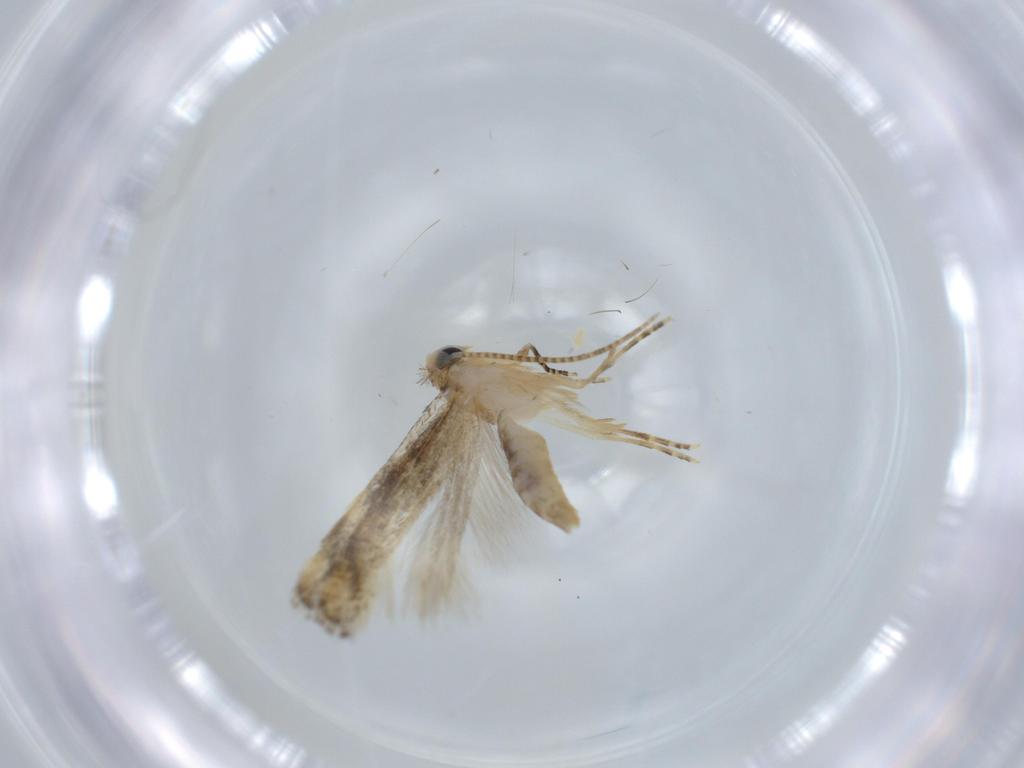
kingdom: Animalia
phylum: Arthropoda
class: Insecta
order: Lepidoptera
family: Bucculatricidae
